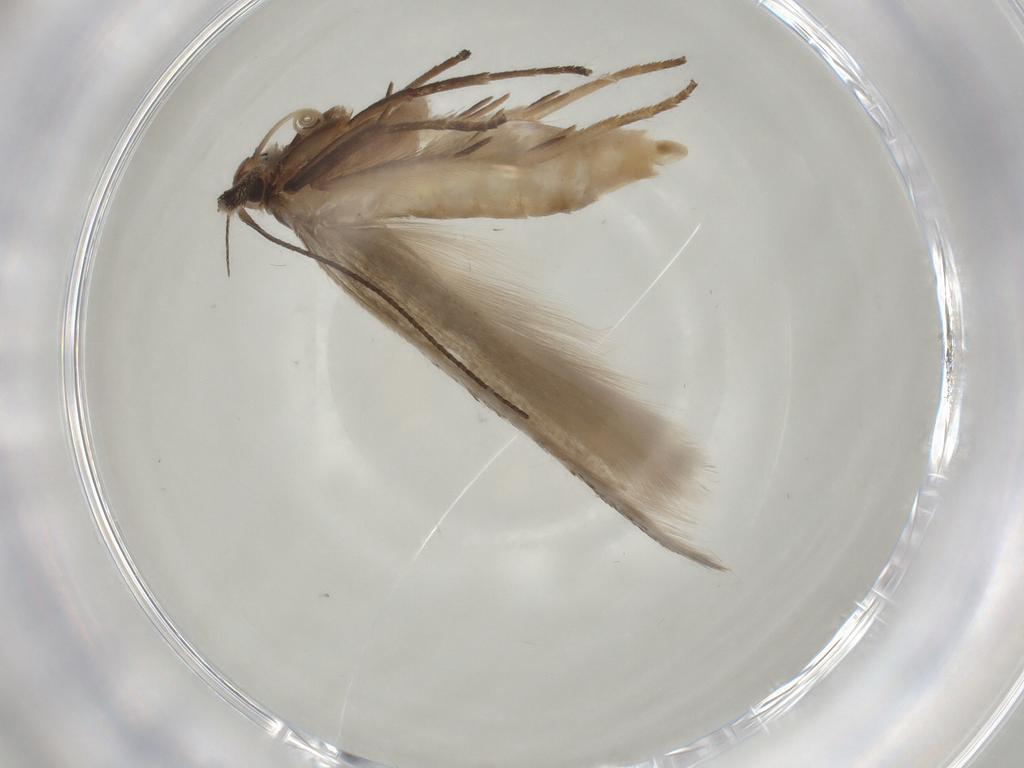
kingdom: Animalia
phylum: Arthropoda
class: Insecta
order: Lepidoptera
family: Gelechiidae
